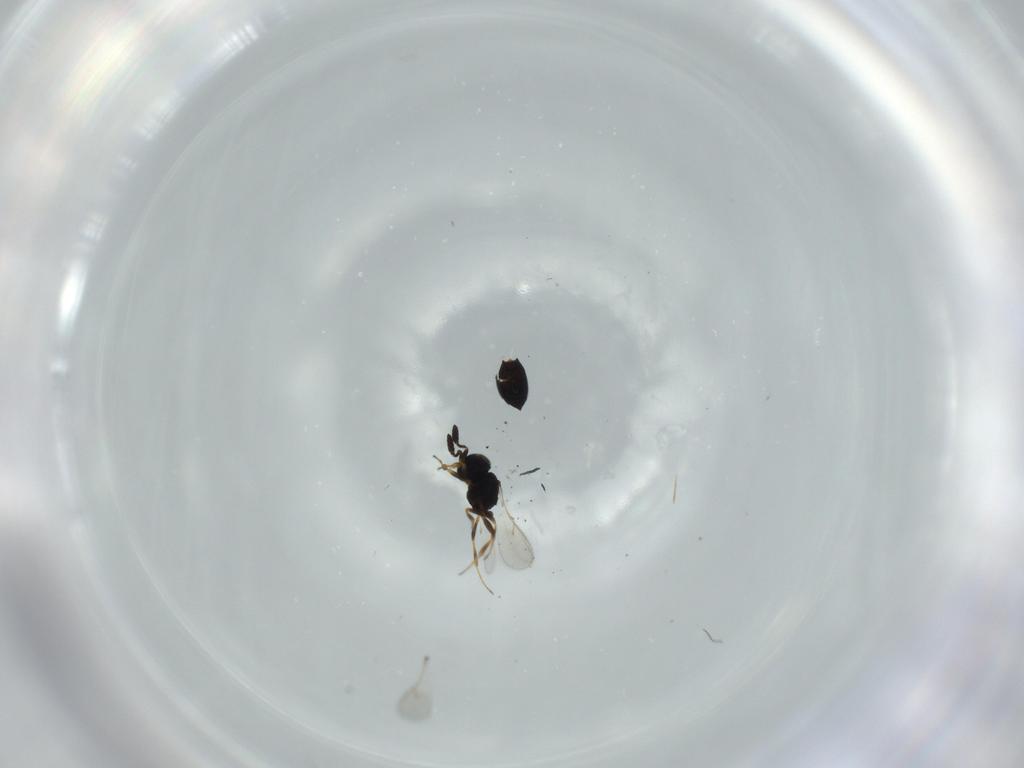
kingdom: Animalia
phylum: Arthropoda
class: Insecta
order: Hymenoptera
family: Scelionidae
